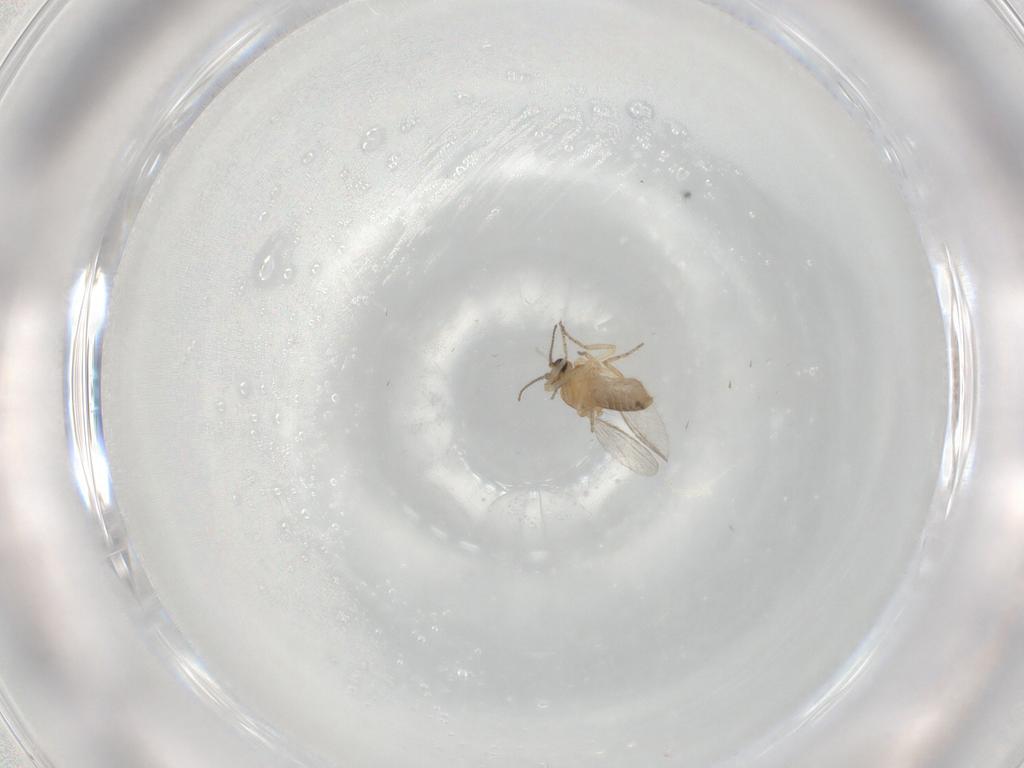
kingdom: Animalia
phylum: Arthropoda
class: Insecta
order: Diptera
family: Ceratopogonidae
